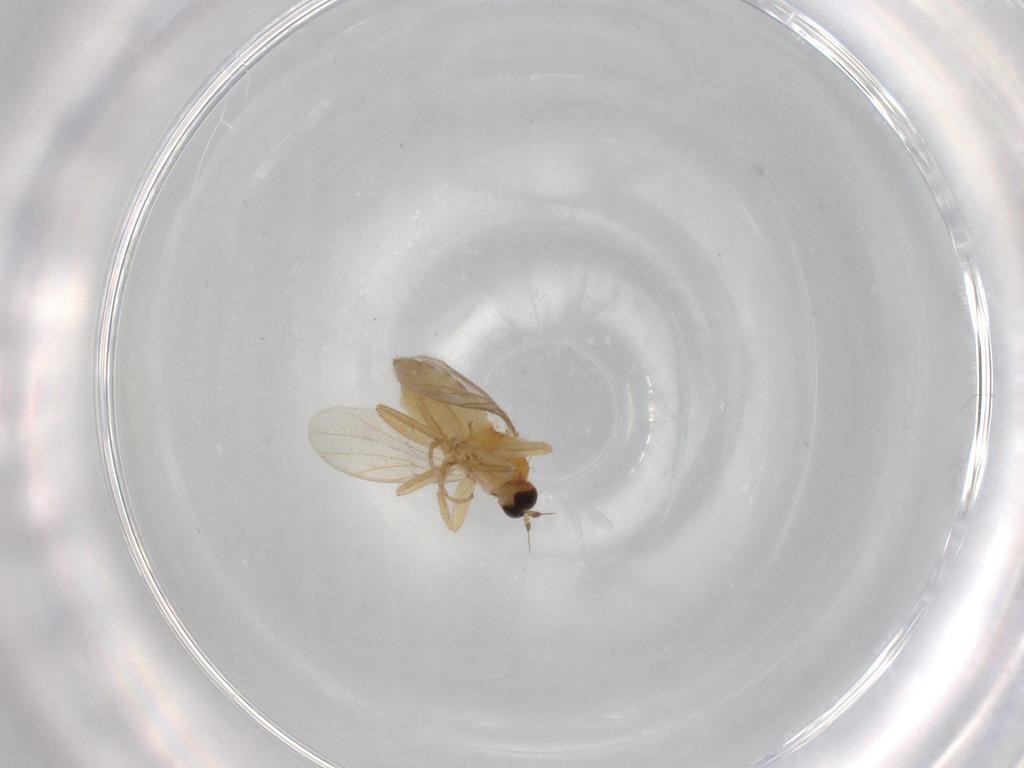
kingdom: Animalia
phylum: Arthropoda
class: Insecta
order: Diptera
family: Hybotidae
